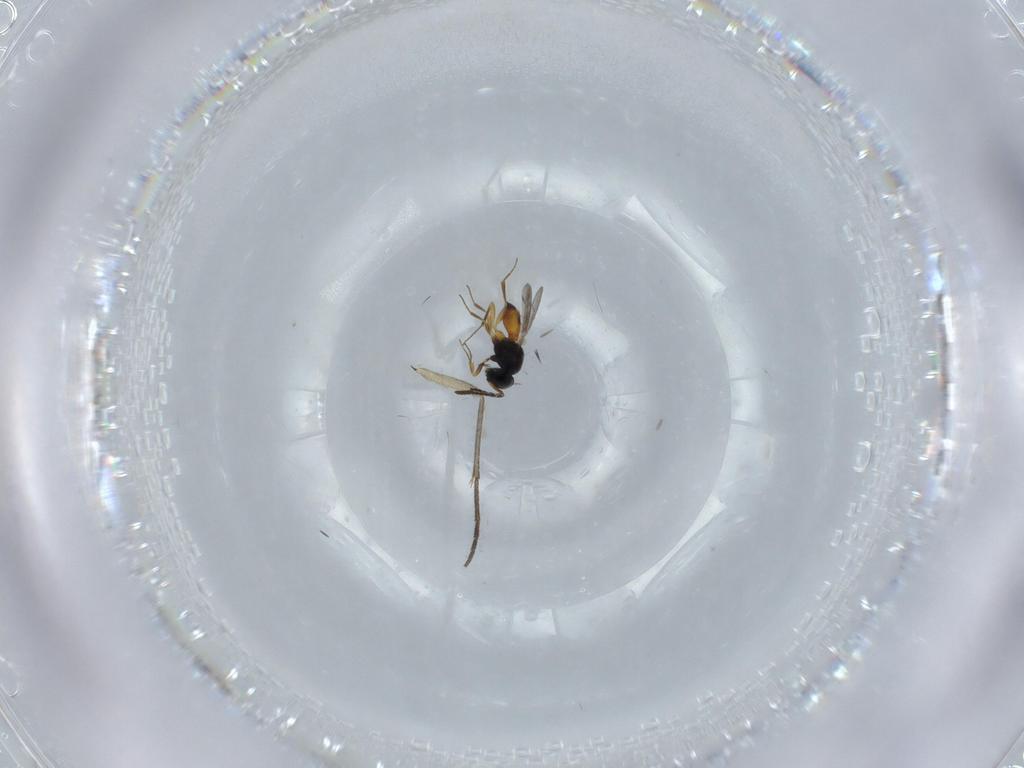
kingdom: Animalia
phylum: Arthropoda
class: Insecta
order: Hymenoptera
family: Scelionidae
